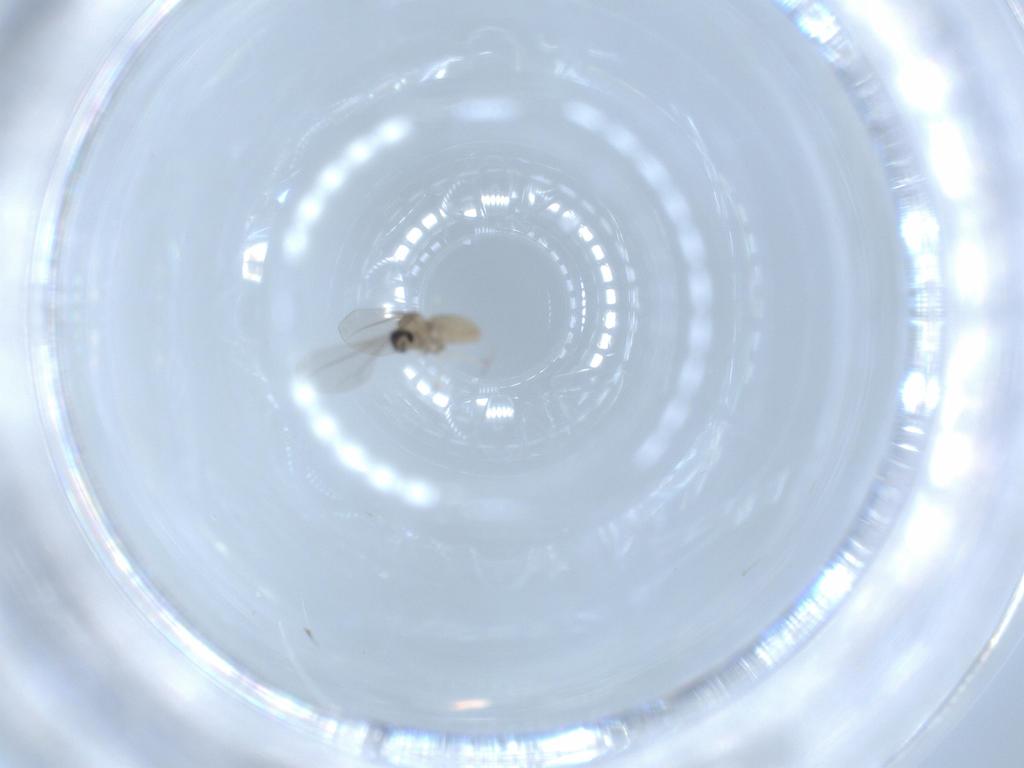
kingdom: Animalia
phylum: Arthropoda
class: Insecta
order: Diptera
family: Cecidomyiidae
